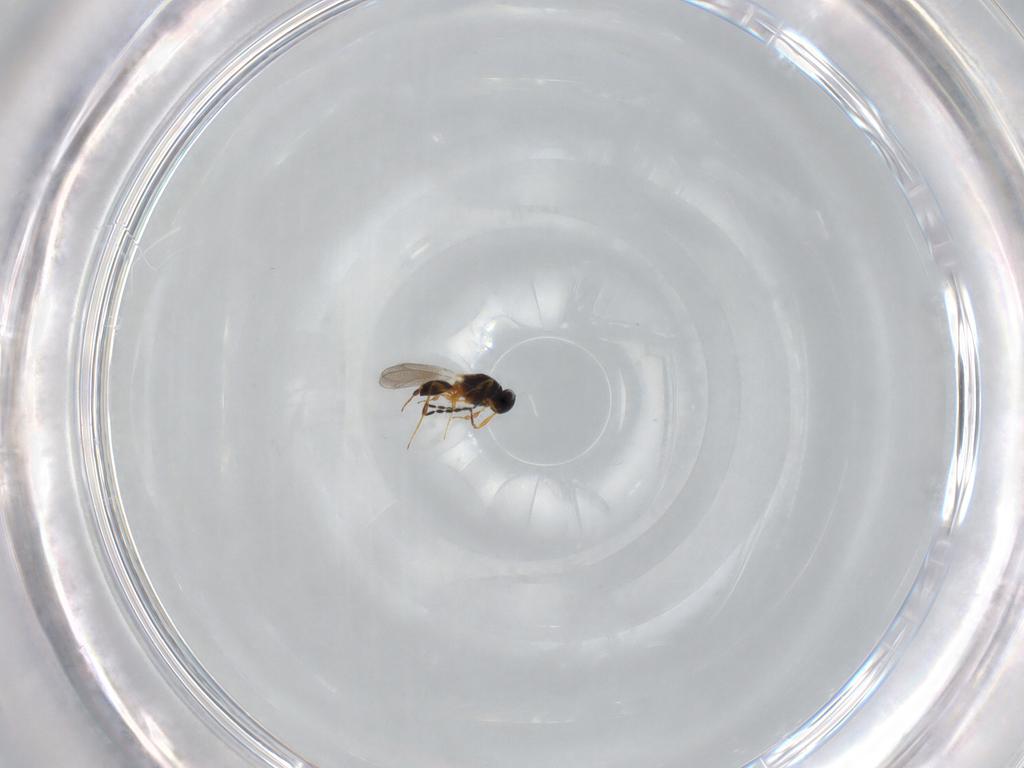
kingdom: Animalia
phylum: Arthropoda
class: Insecta
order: Hymenoptera
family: Platygastridae
